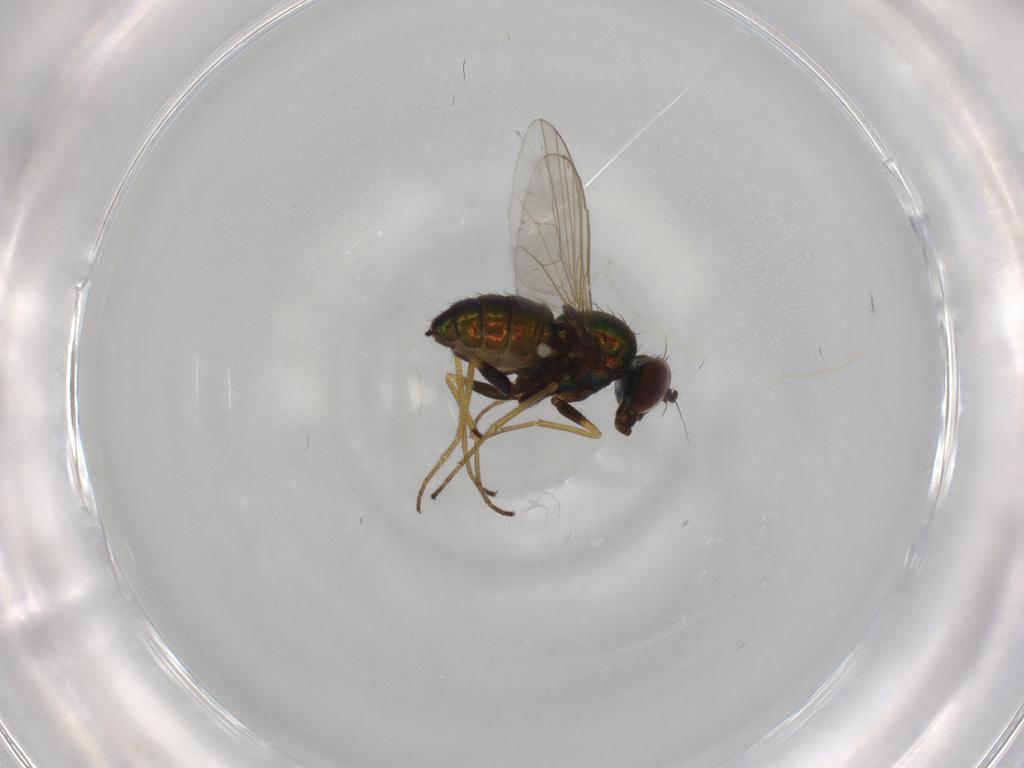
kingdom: Animalia
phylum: Arthropoda
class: Insecta
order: Diptera
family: Dolichopodidae
